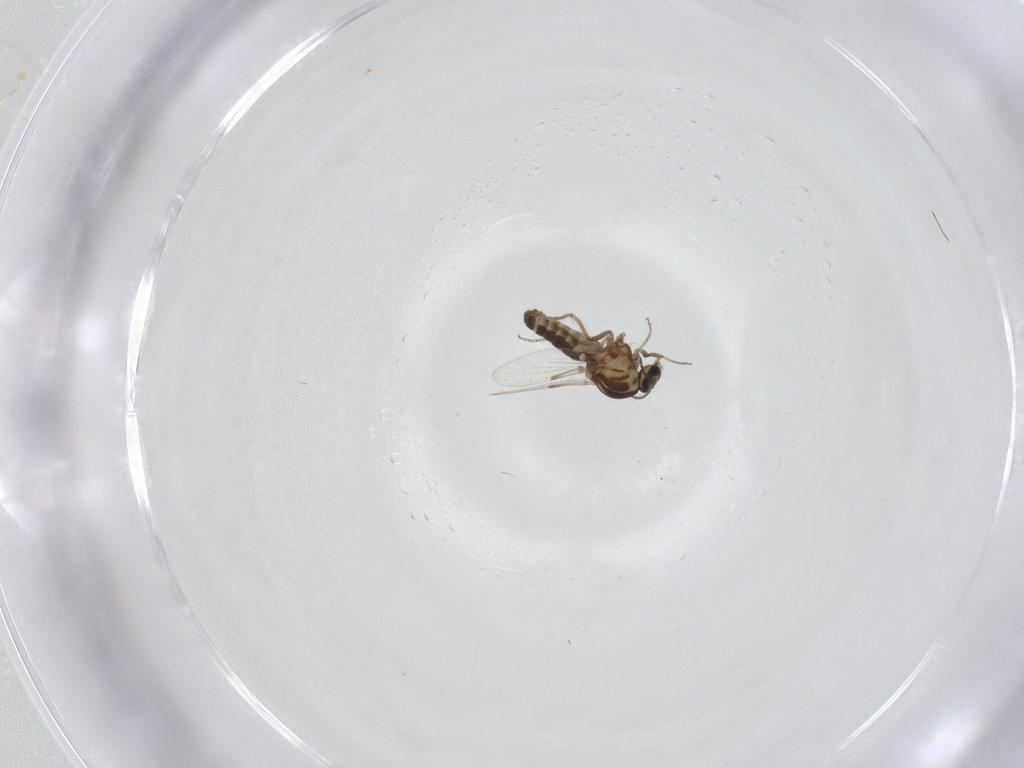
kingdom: Animalia
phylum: Arthropoda
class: Insecta
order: Diptera
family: Ceratopogonidae
